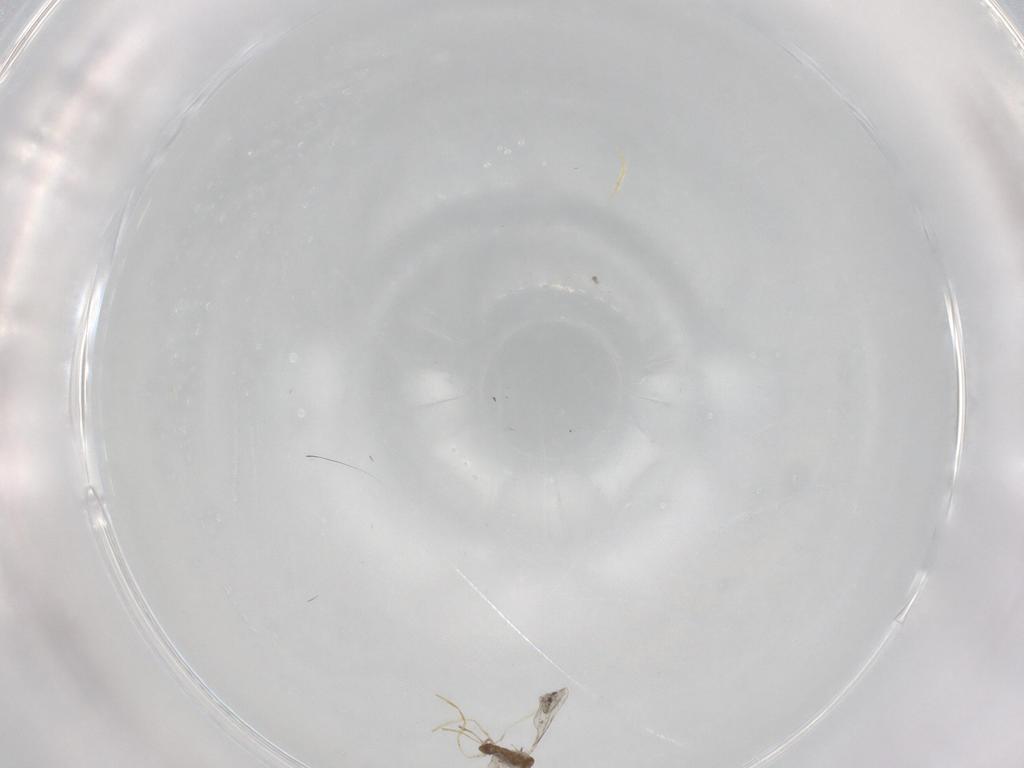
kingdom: Animalia
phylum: Arthropoda
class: Insecta
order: Diptera
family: Cecidomyiidae
